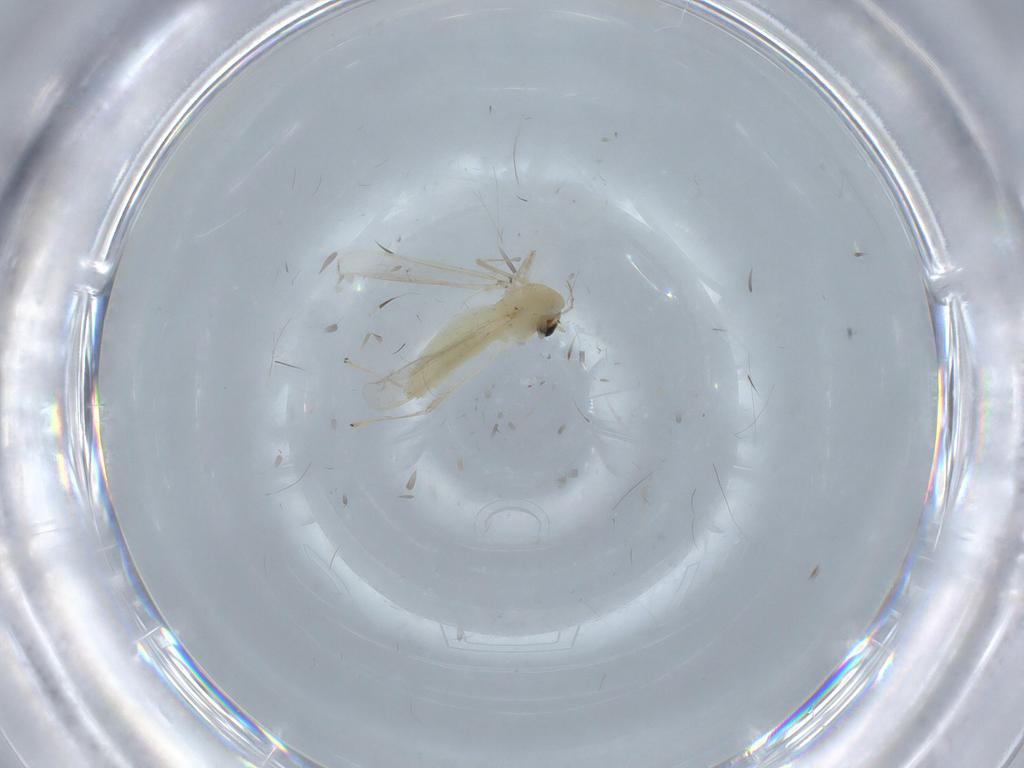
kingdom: Animalia
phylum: Arthropoda
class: Insecta
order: Diptera
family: Chironomidae
